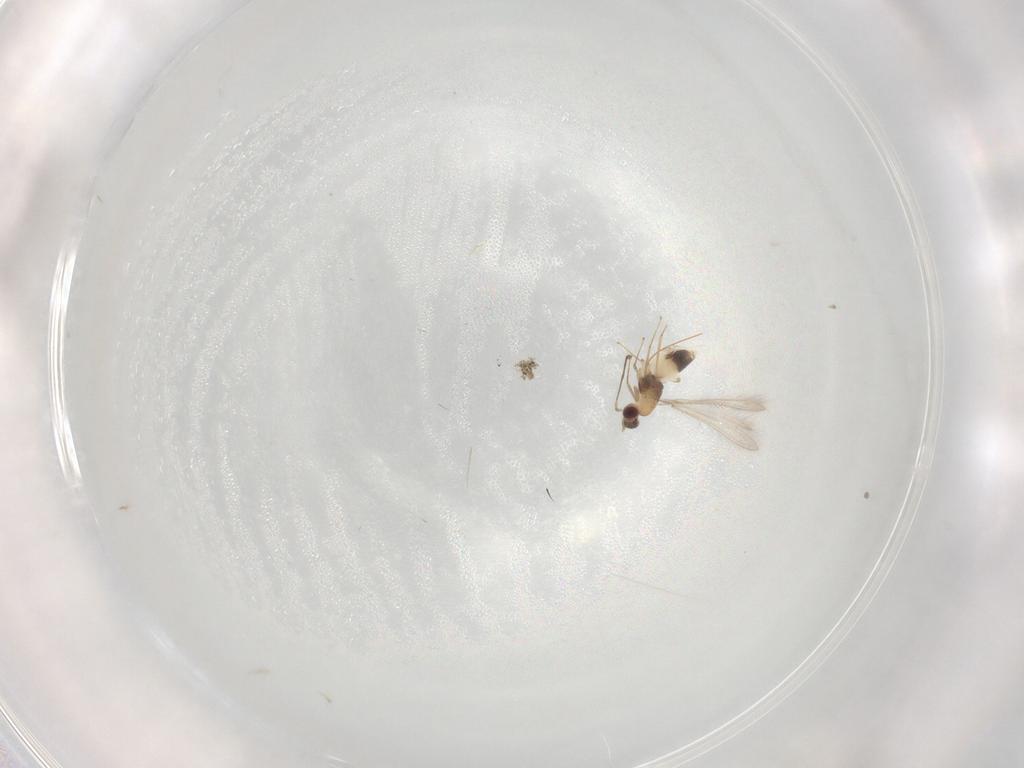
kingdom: Animalia
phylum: Arthropoda
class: Insecta
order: Hymenoptera
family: Mymaridae
